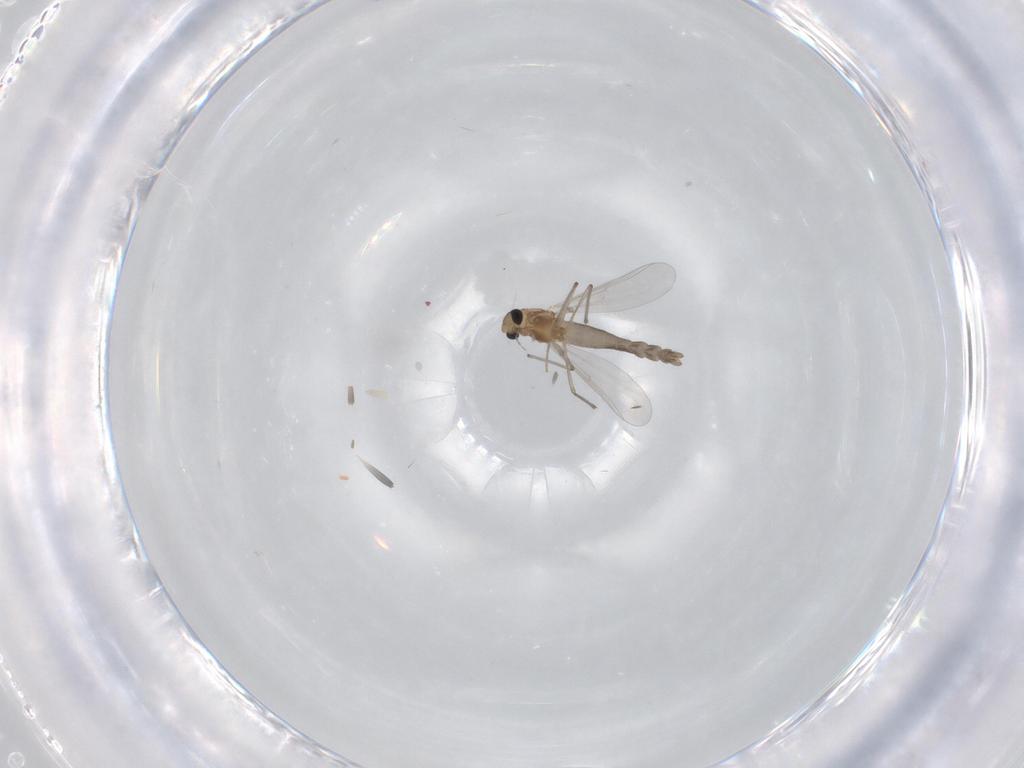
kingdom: Animalia
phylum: Arthropoda
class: Insecta
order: Diptera
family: Chironomidae
